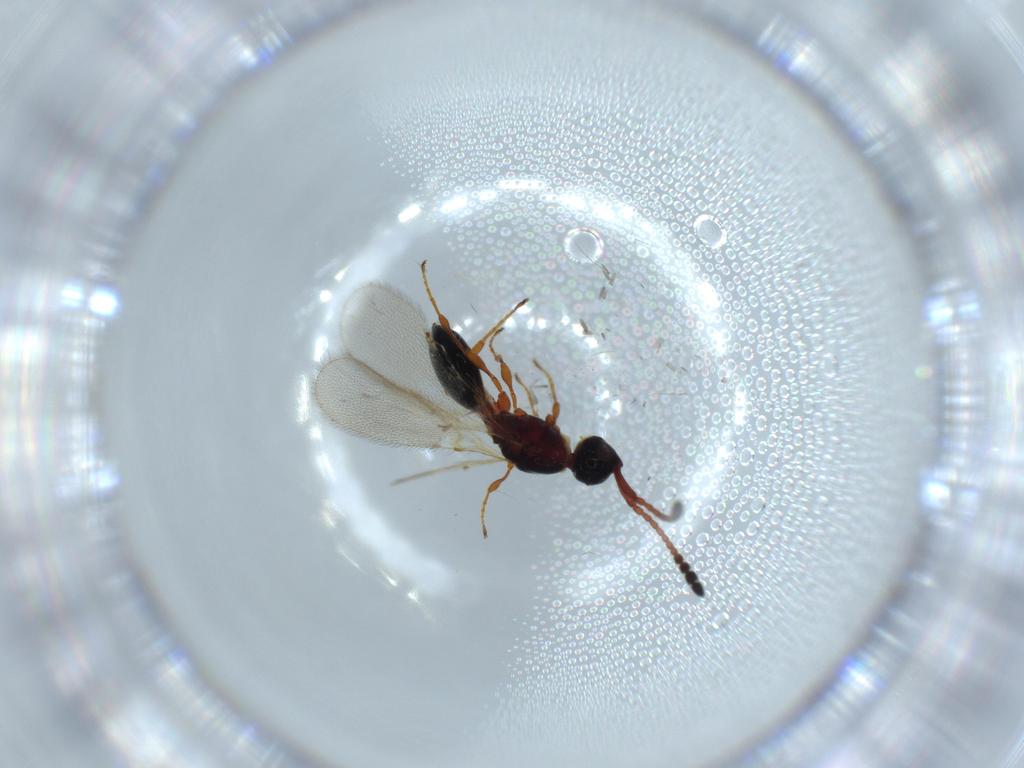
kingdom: Animalia
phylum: Arthropoda
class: Insecta
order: Hymenoptera
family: Diapriidae
